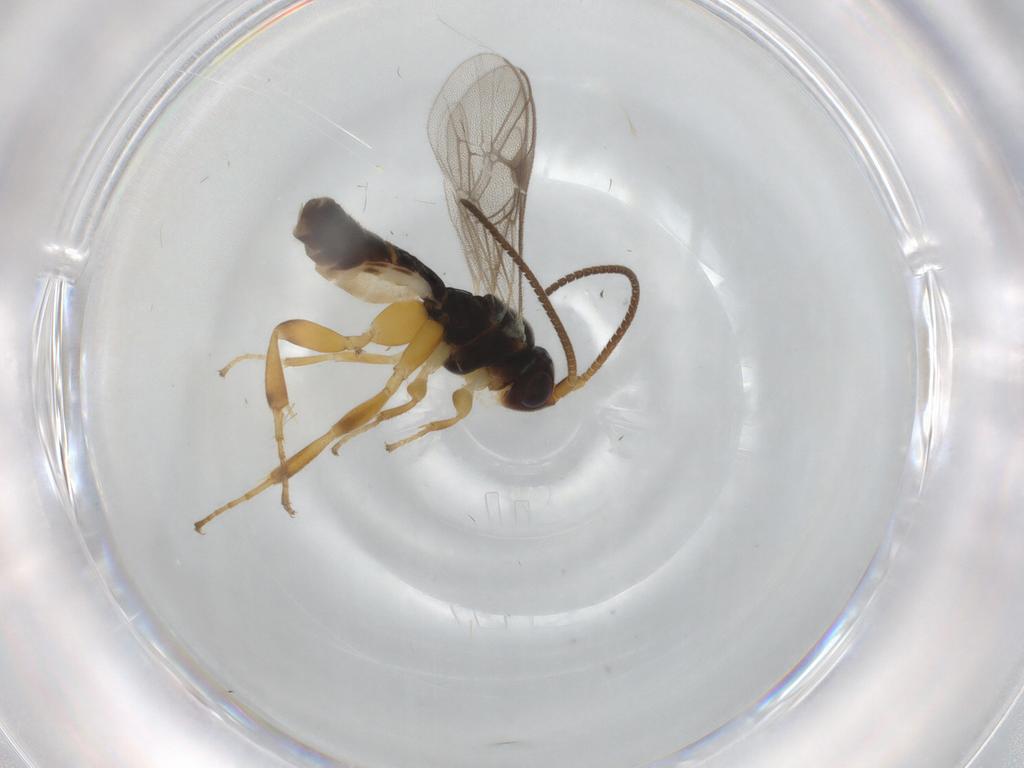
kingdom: Animalia
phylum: Arthropoda
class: Insecta
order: Hymenoptera
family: Ichneumonidae
